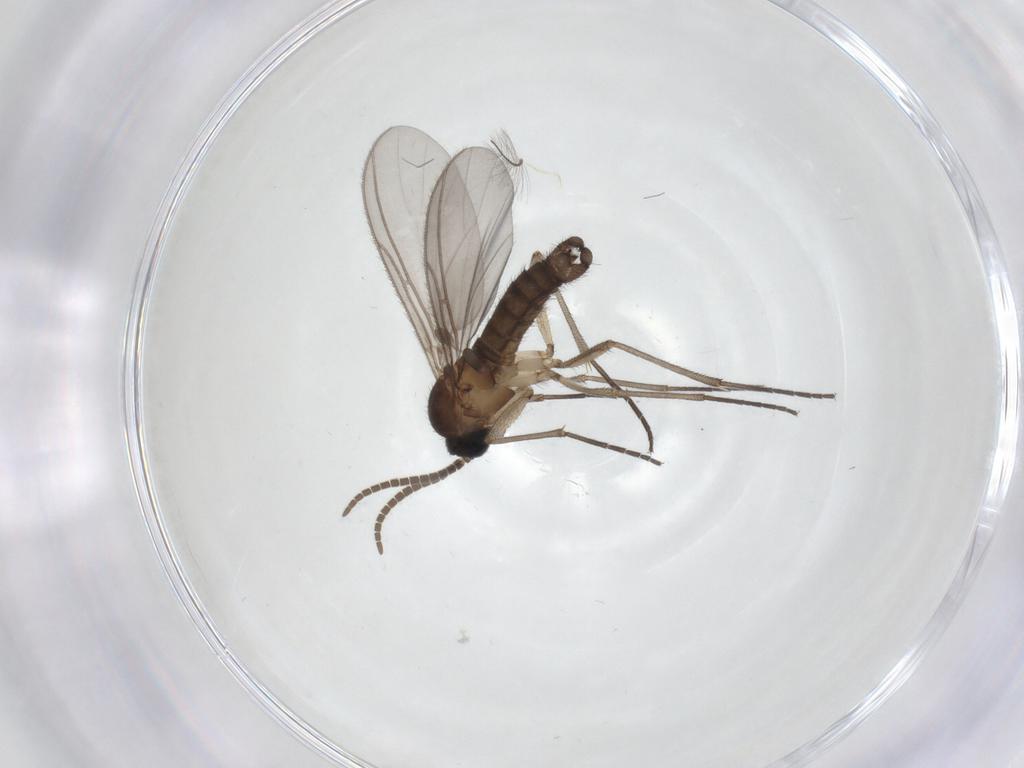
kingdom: Animalia
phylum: Arthropoda
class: Insecta
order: Diptera
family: Chironomidae
